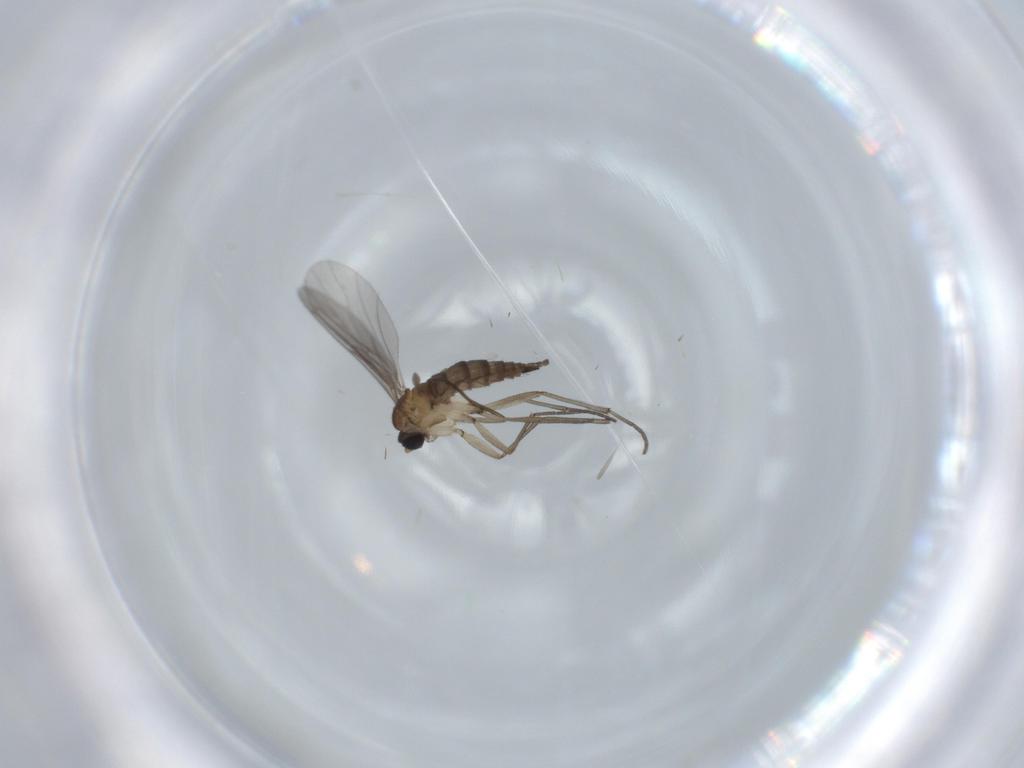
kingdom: Animalia
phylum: Arthropoda
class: Insecta
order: Diptera
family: Sciaridae
